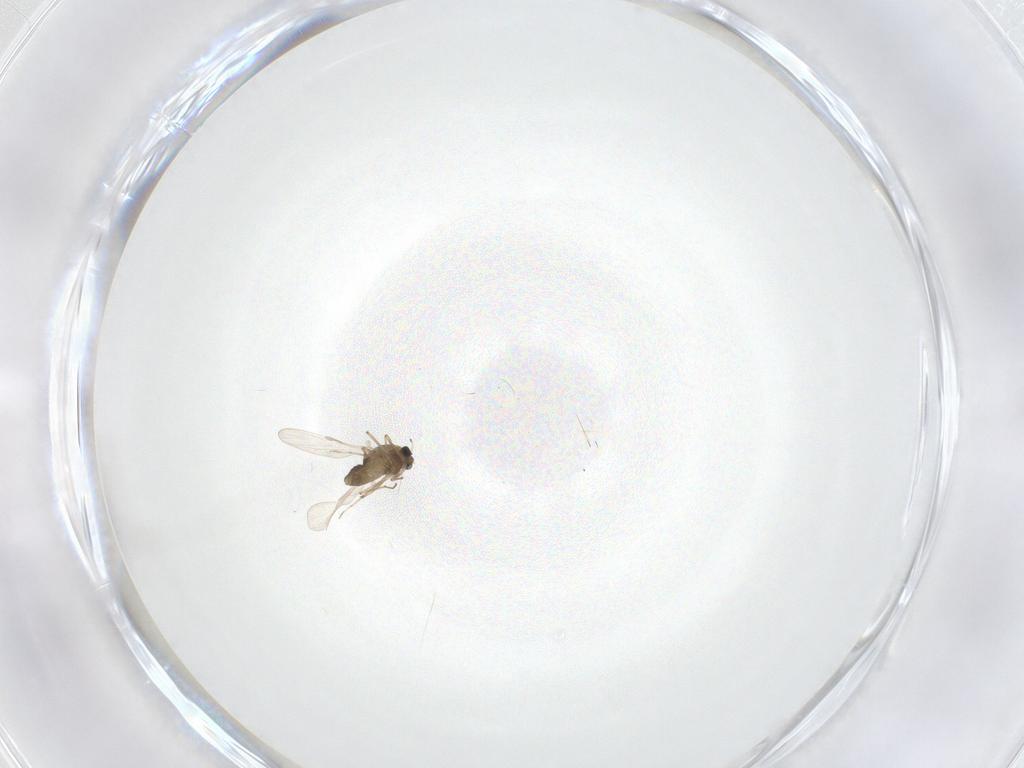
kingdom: Animalia
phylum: Arthropoda
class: Insecta
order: Diptera
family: Chironomidae
